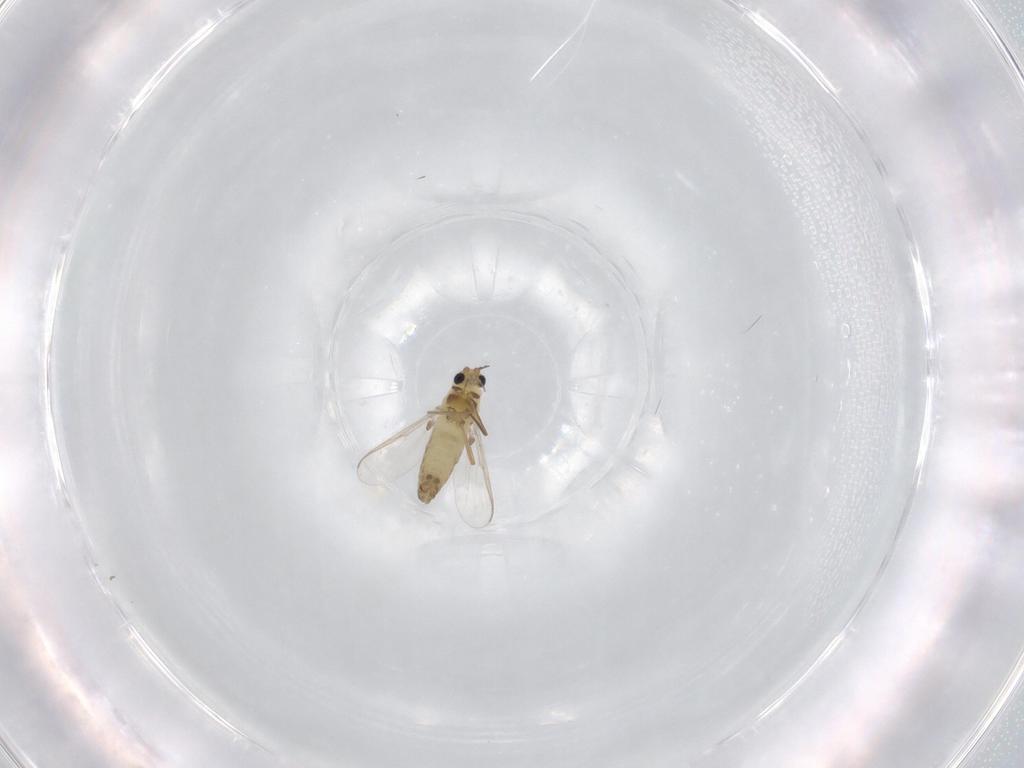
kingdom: Animalia
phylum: Arthropoda
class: Insecta
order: Diptera
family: Chironomidae
